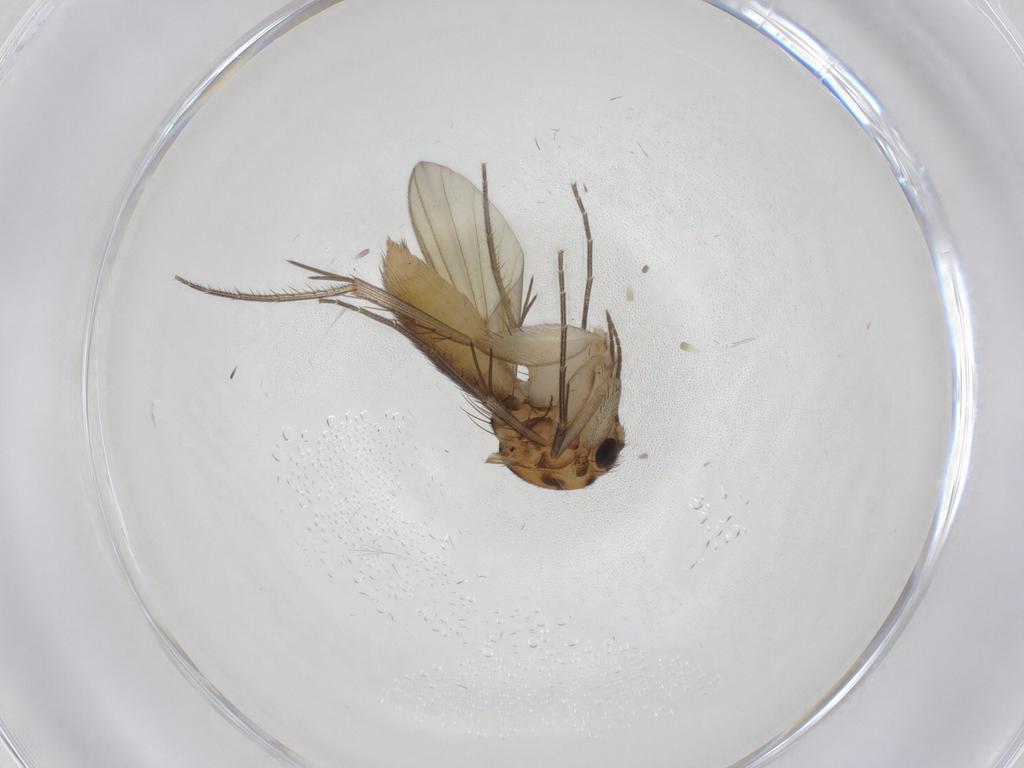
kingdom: Animalia
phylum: Arthropoda
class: Insecta
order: Diptera
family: Mycetophilidae
